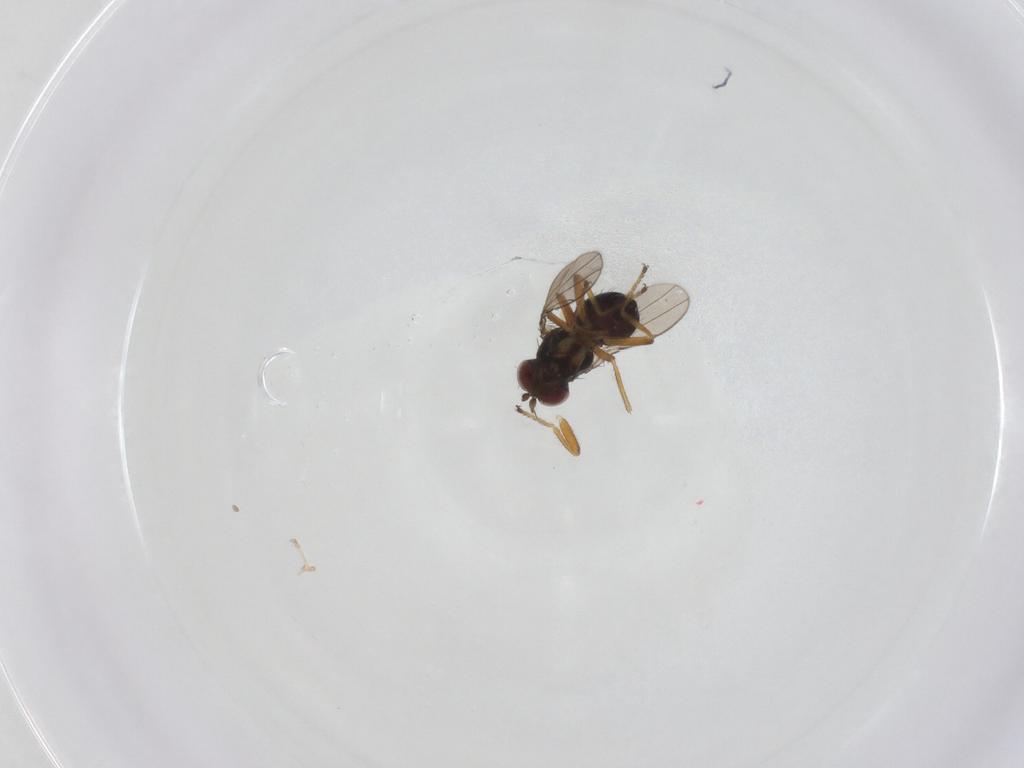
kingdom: Animalia
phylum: Arthropoda
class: Insecta
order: Diptera
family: Ephydridae
